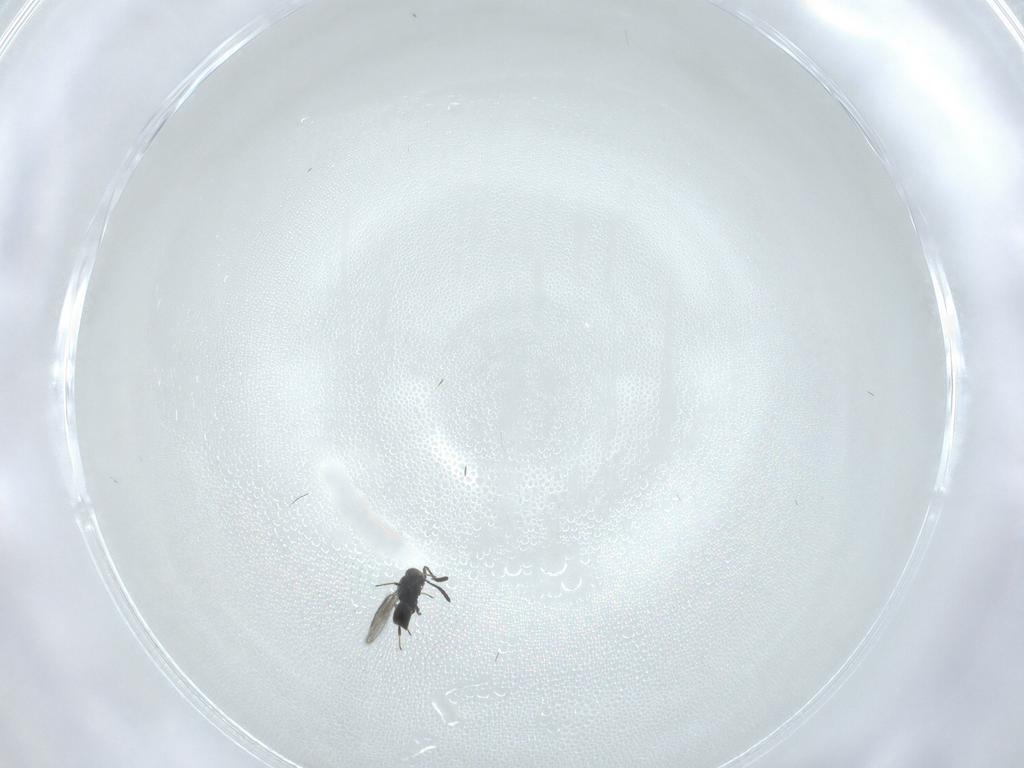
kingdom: Animalia
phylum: Arthropoda
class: Insecta
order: Hymenoptera
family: Scelionidae
